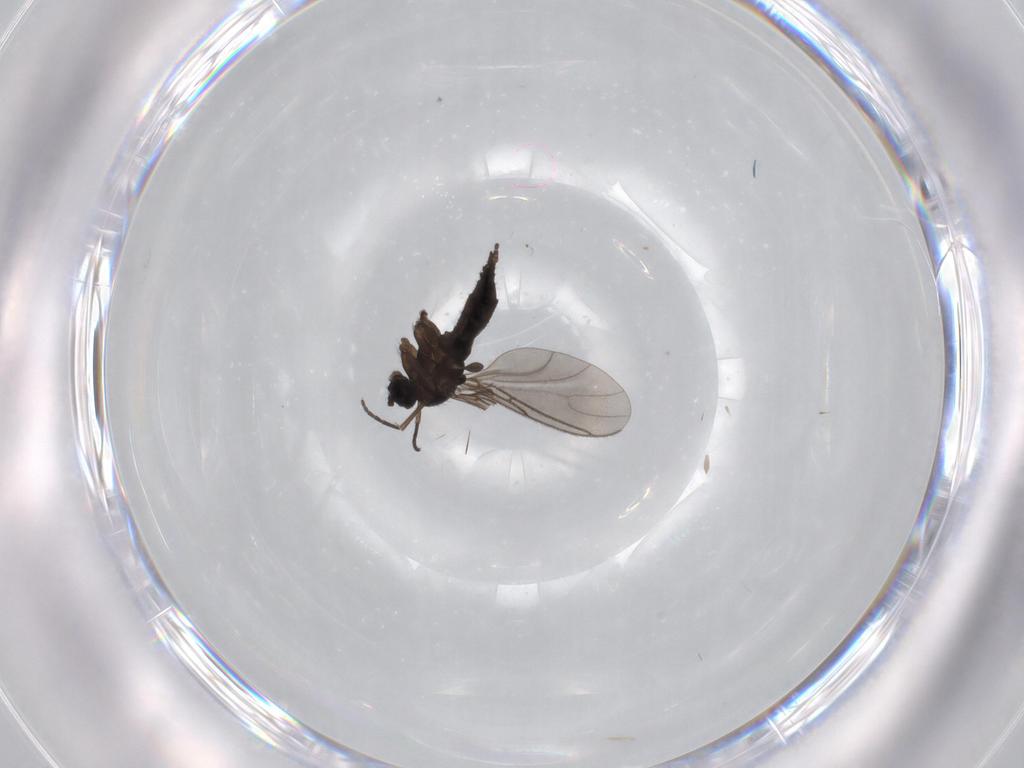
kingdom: Animalia
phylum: Arthropoda
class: Insecta
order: Diptera
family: Sciaridae
